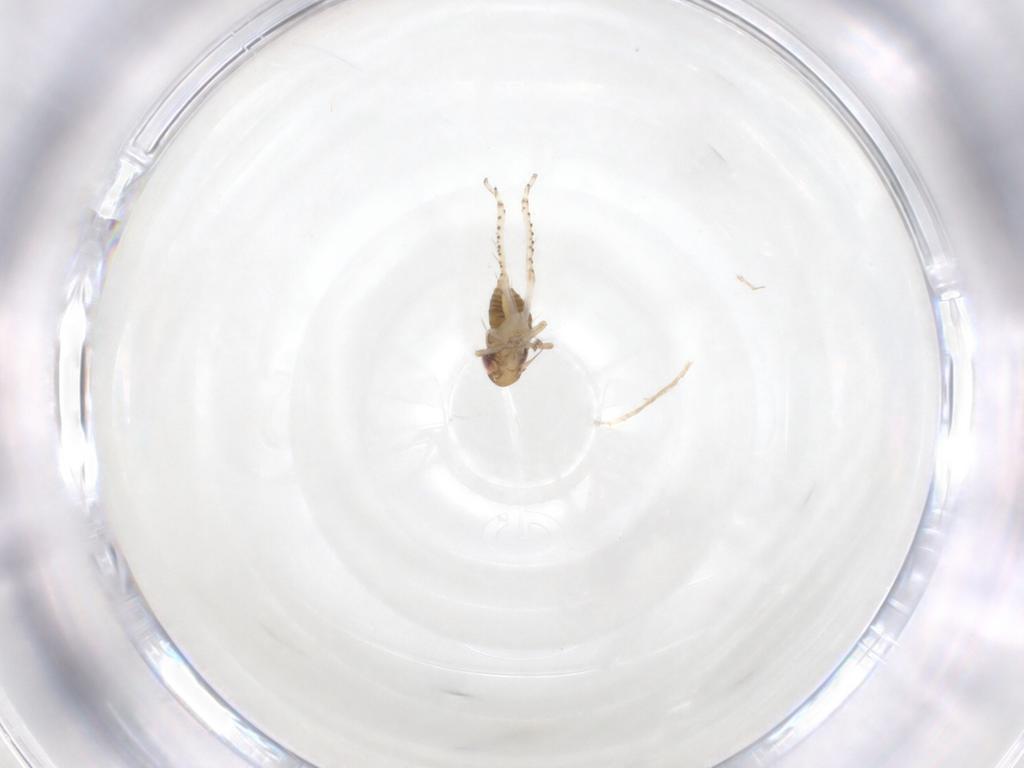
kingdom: Animalia
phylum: Arthropoda
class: Insecta
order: Hemiptera
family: Cicadellidae
